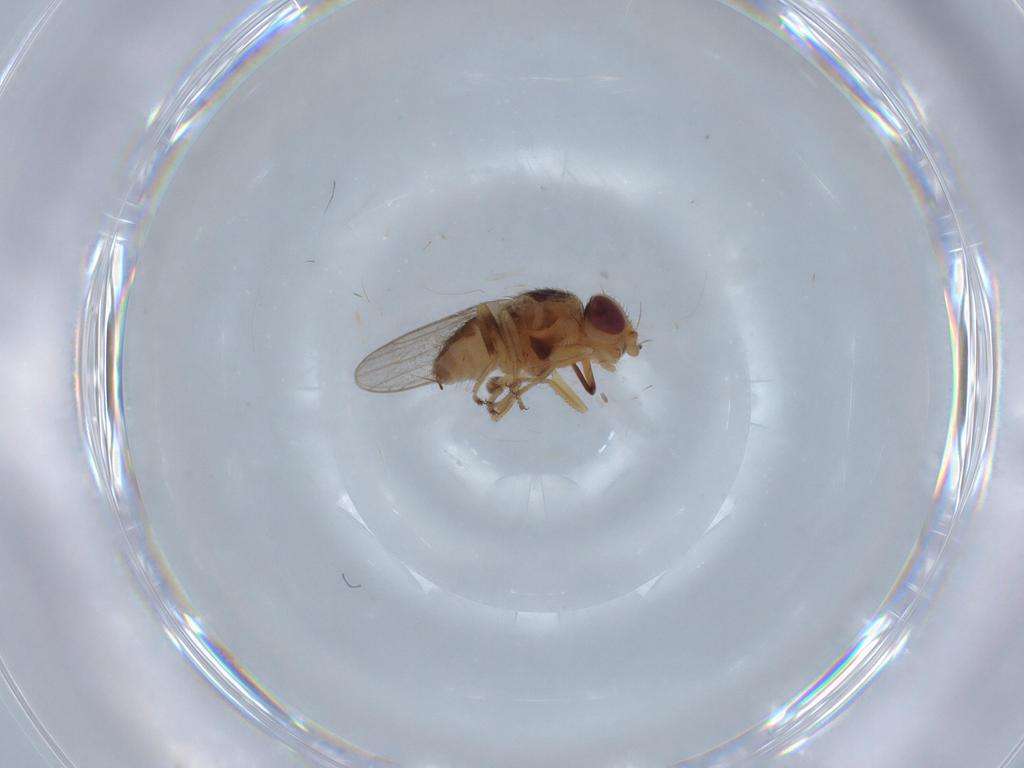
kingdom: Animalia
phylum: Arthropoda
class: Insecta
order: Diptera
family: Chloropidae
